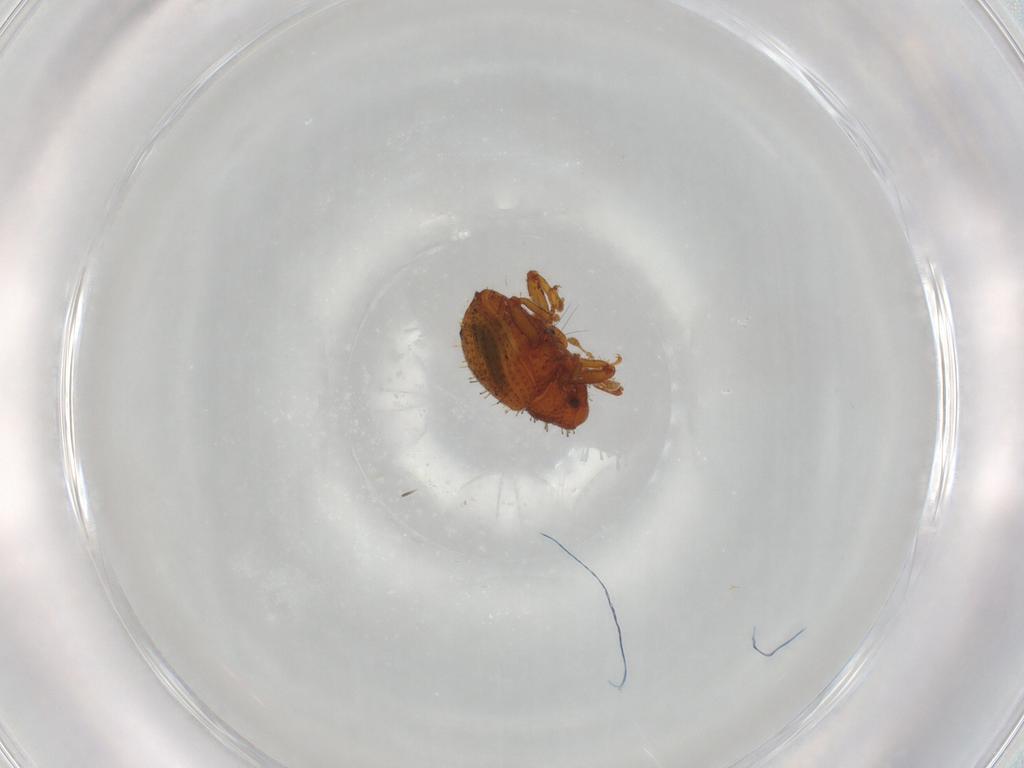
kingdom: Animalia
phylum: Arthropoda
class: Insecta
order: Coleoptera
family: Curculionidae
